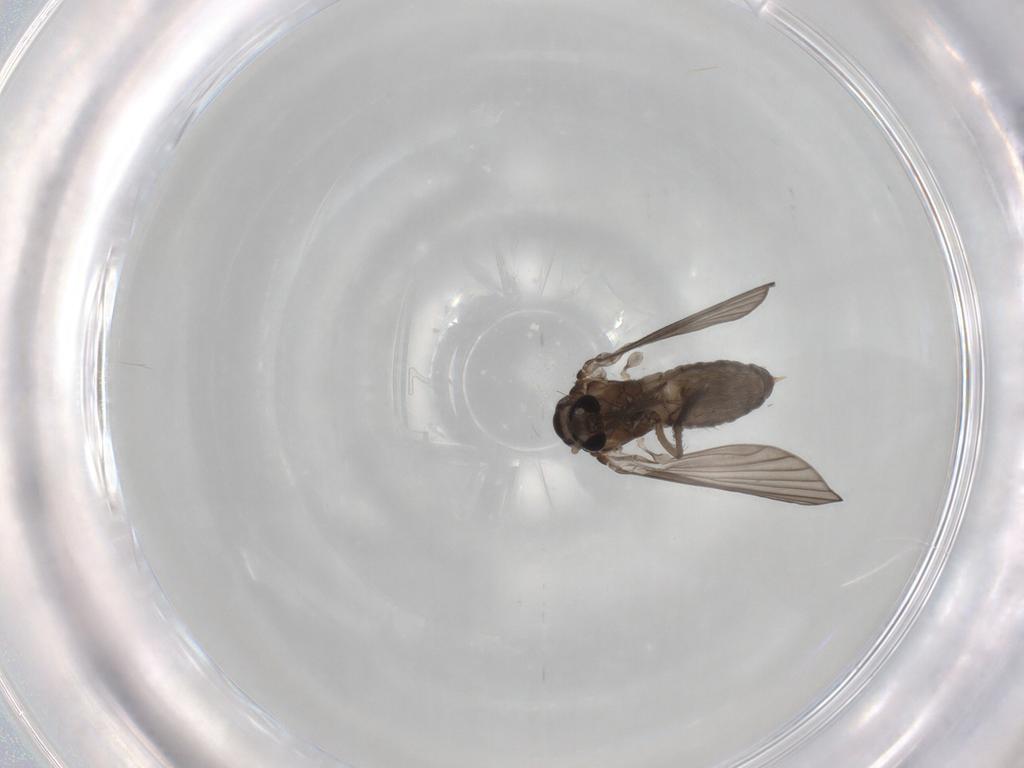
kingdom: Animalia
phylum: Arthropoda
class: Insecta
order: Diptera
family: Psychodidae
